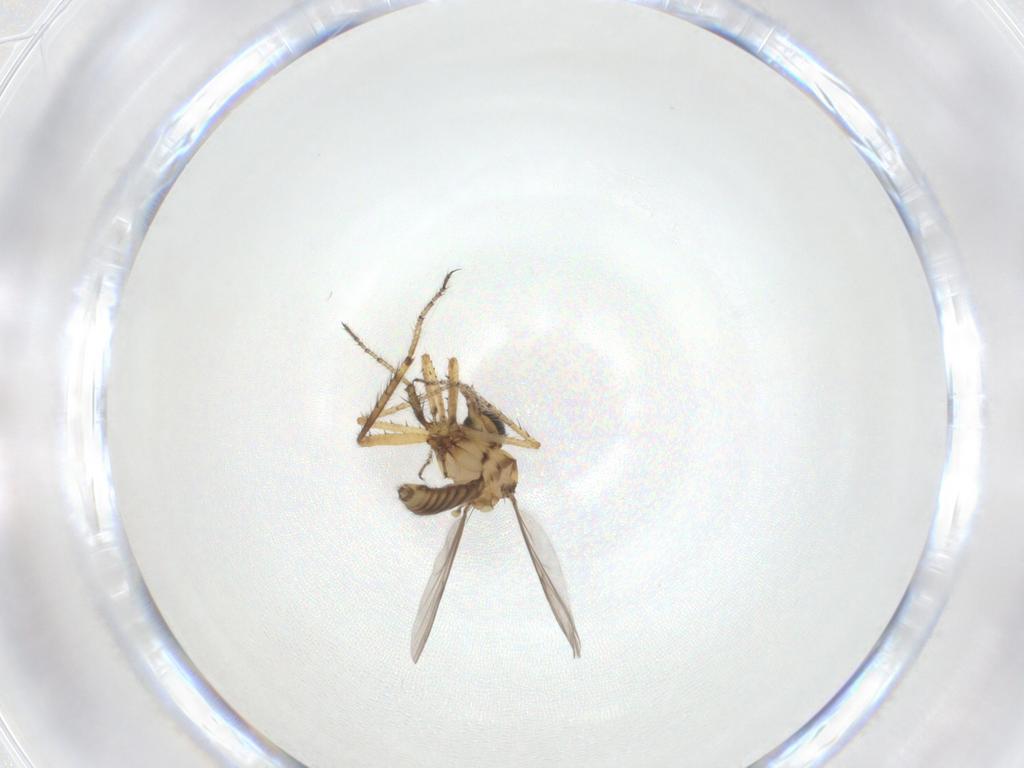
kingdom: Animalia
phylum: Arthropoda
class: Insecta
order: Diptera
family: Ceratopogonidae
